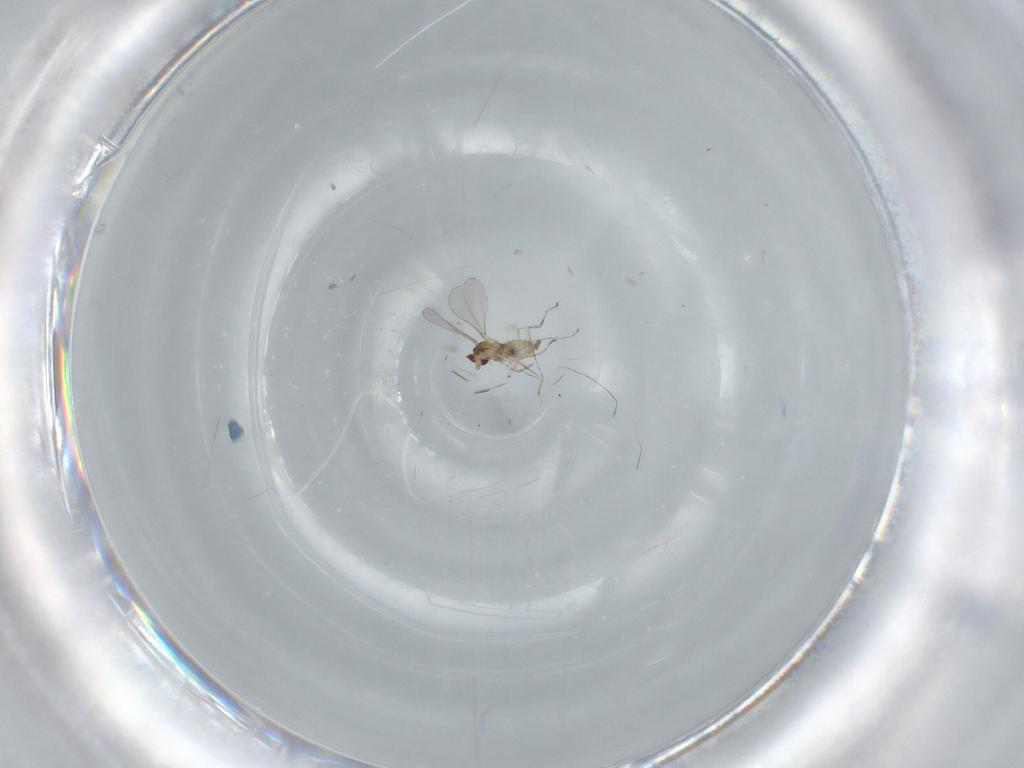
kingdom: Animalia
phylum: Arthropoda
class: Insecta
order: Diptera
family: Cecidomyiidae
